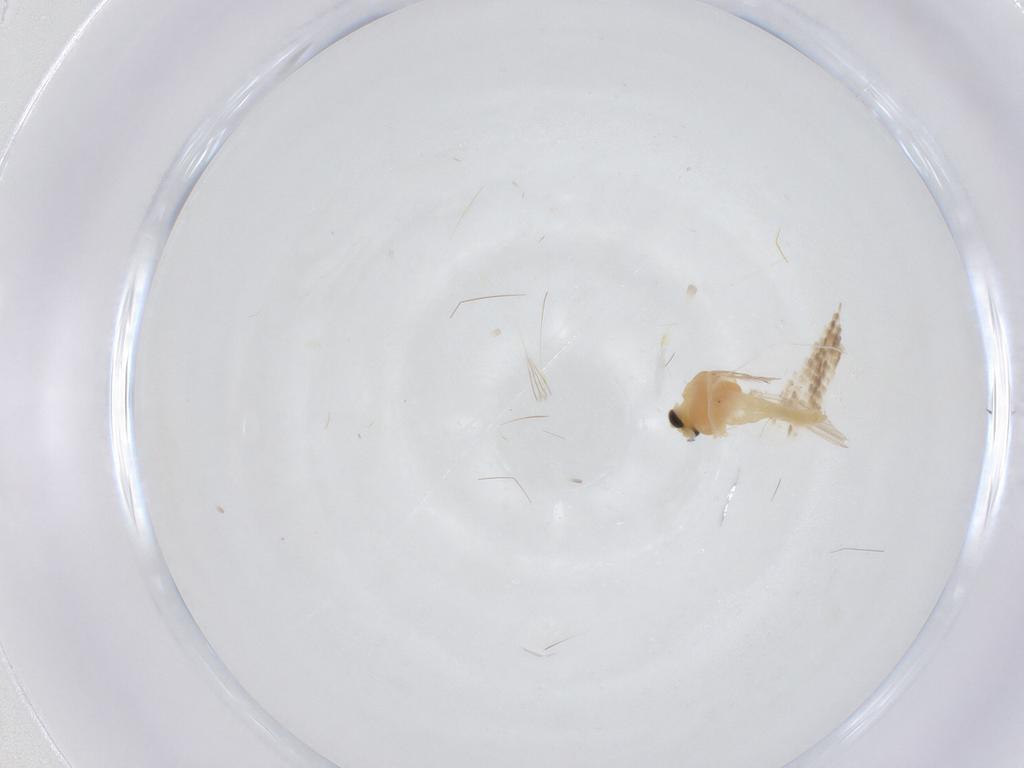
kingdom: Animalia
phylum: Arthropoda
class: Insecta
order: Diptera
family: Chironomidae
